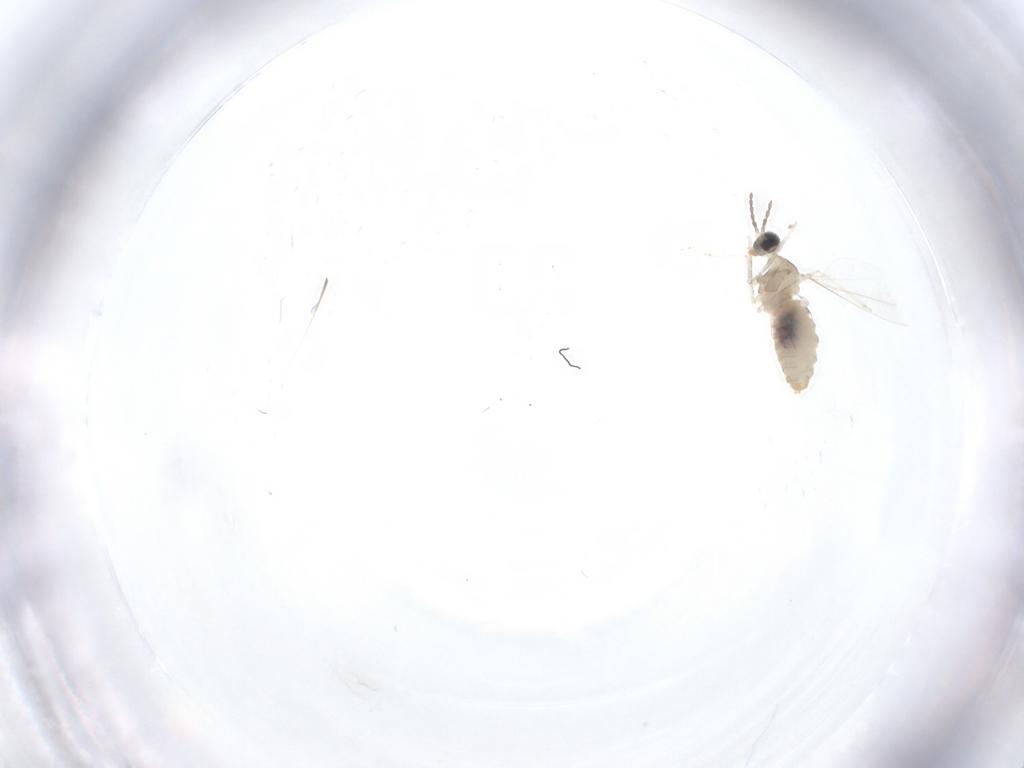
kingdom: Animalia
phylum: Arthropoda
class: Insecta
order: Diptera
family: Cecidomyiidae
